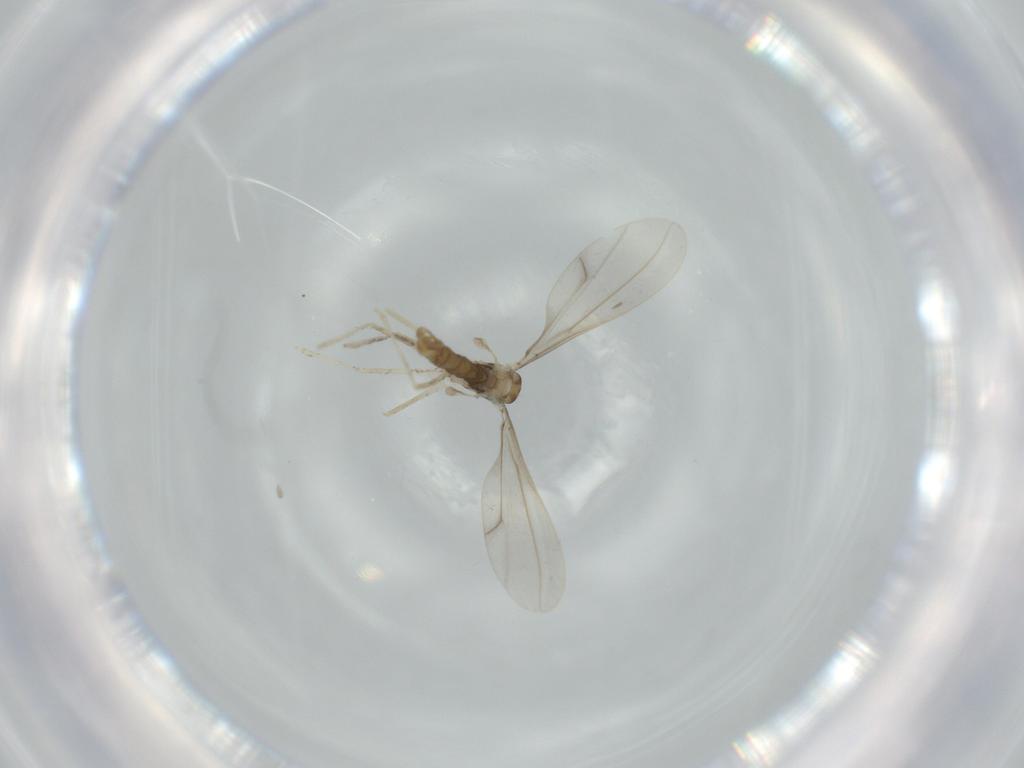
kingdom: Animalia
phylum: Arthropoda
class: Insecta
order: Diptera
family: Cecidomyiidae
